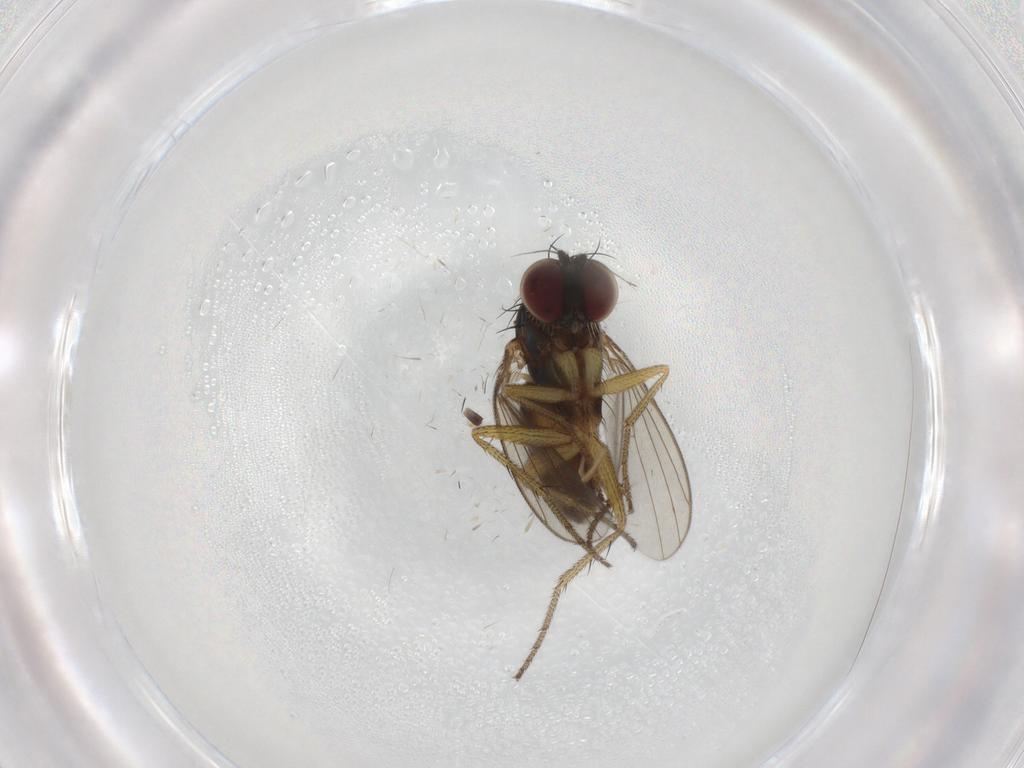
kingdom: Animalia
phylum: Arthropoda
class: Insecta
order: Diptera
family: Dolichopodidae
